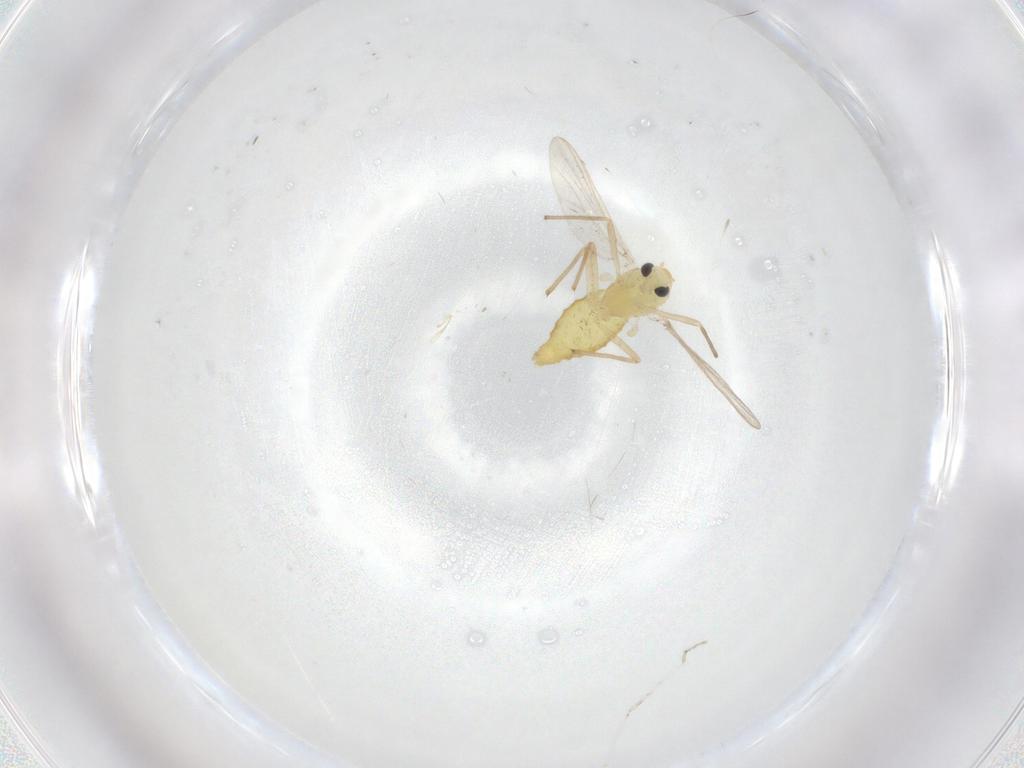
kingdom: Animalia
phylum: Arthropoda
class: Insecta
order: Diptera
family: Chironomidae
